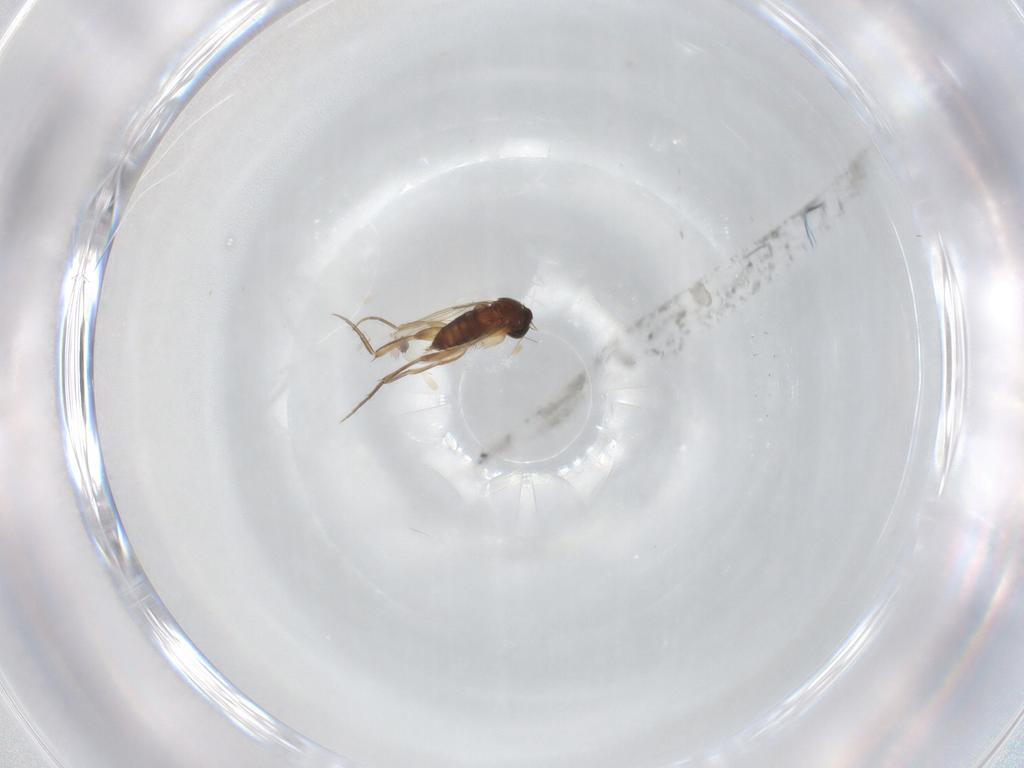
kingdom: Animalia
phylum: Arthropoda
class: Insecta
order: Diptera
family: Phoridae
